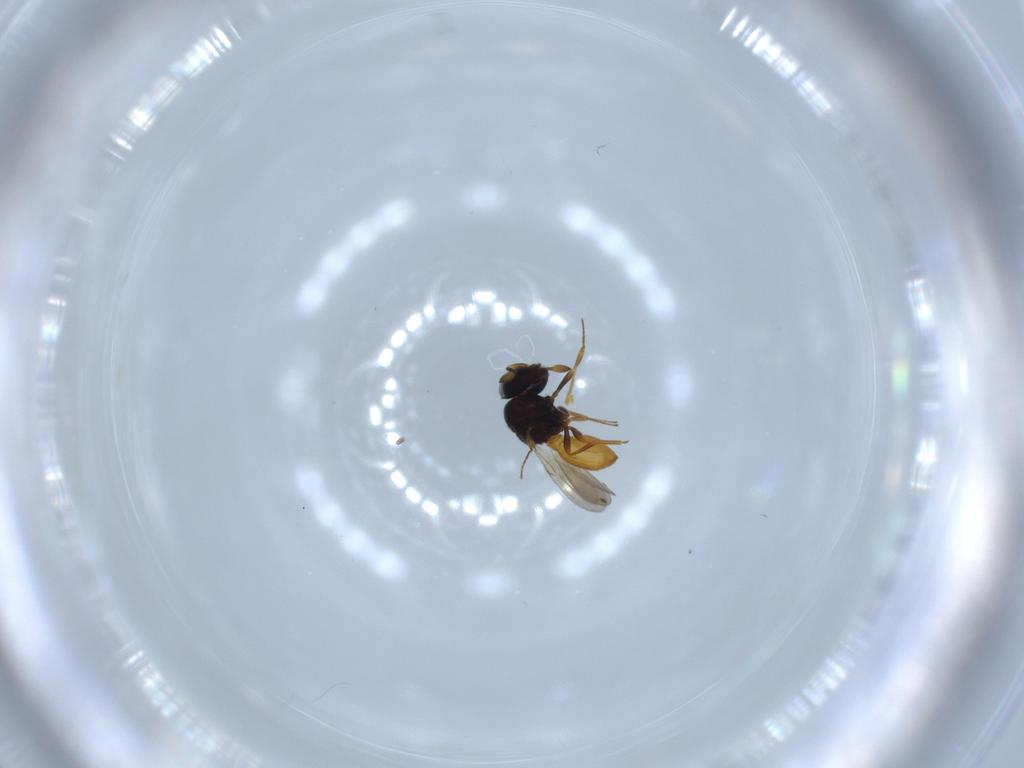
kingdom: Animalia
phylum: Arthropoda
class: Insecta
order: Hymenoptera
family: Scelionidae
